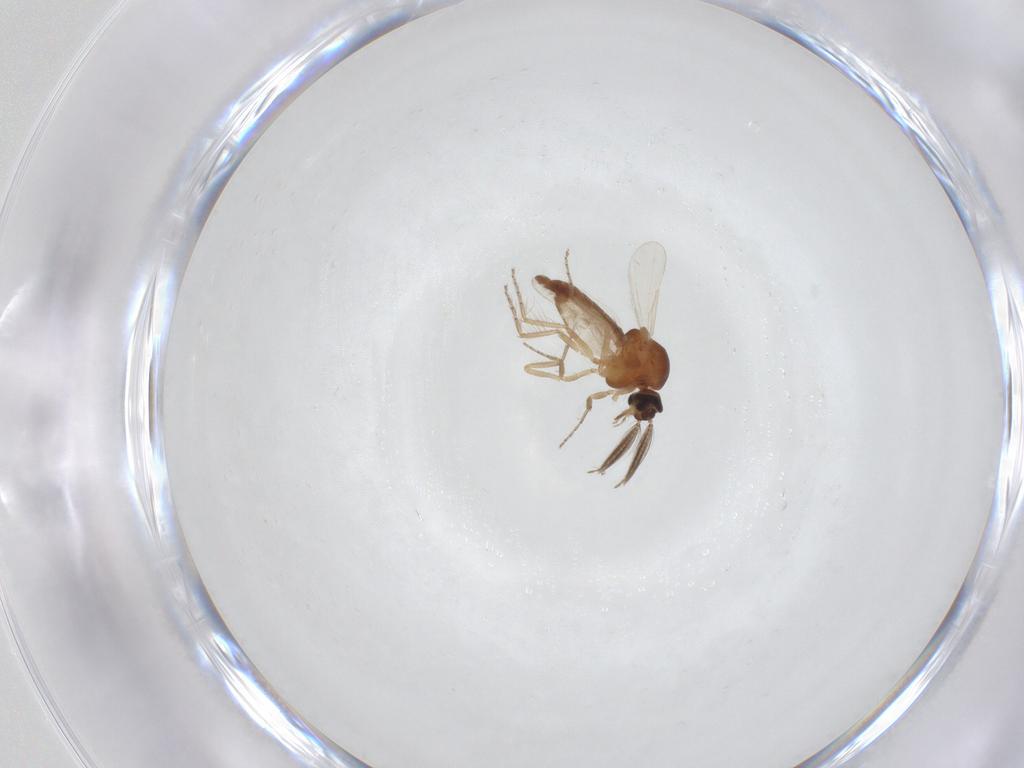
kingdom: Animalia
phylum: Arthropoda
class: Insecta
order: Diptera
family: Ceratopogonidae
